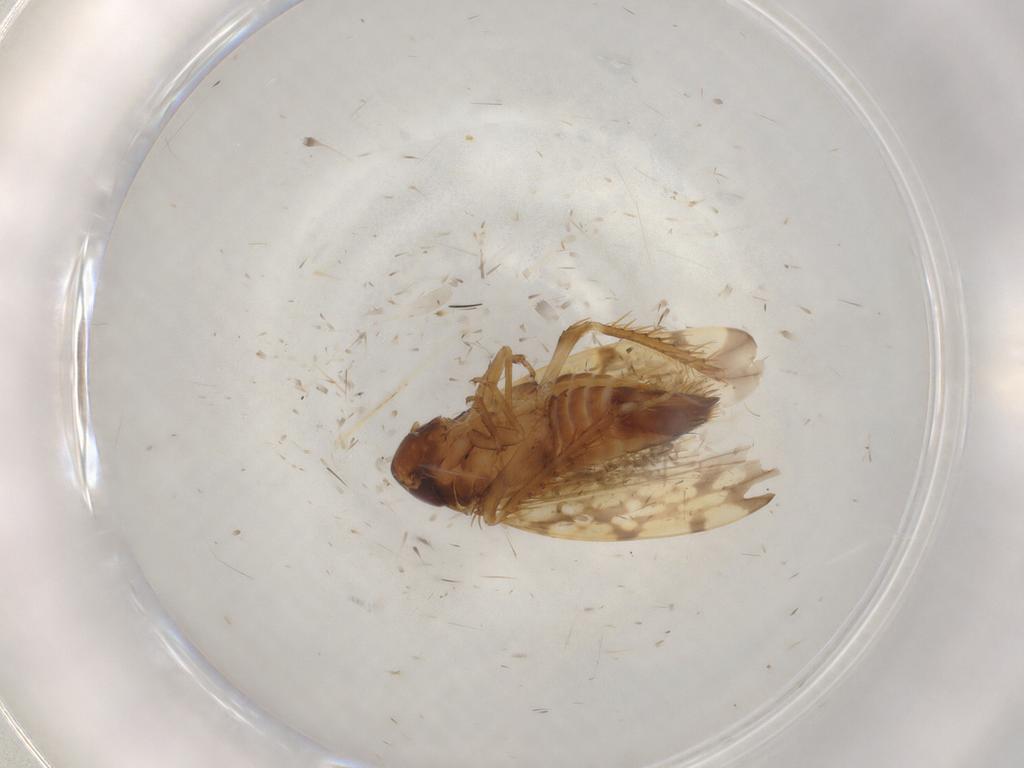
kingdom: Animalia
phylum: Arthropoda
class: Insecta
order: Hemiptera
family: Cicadellidae
